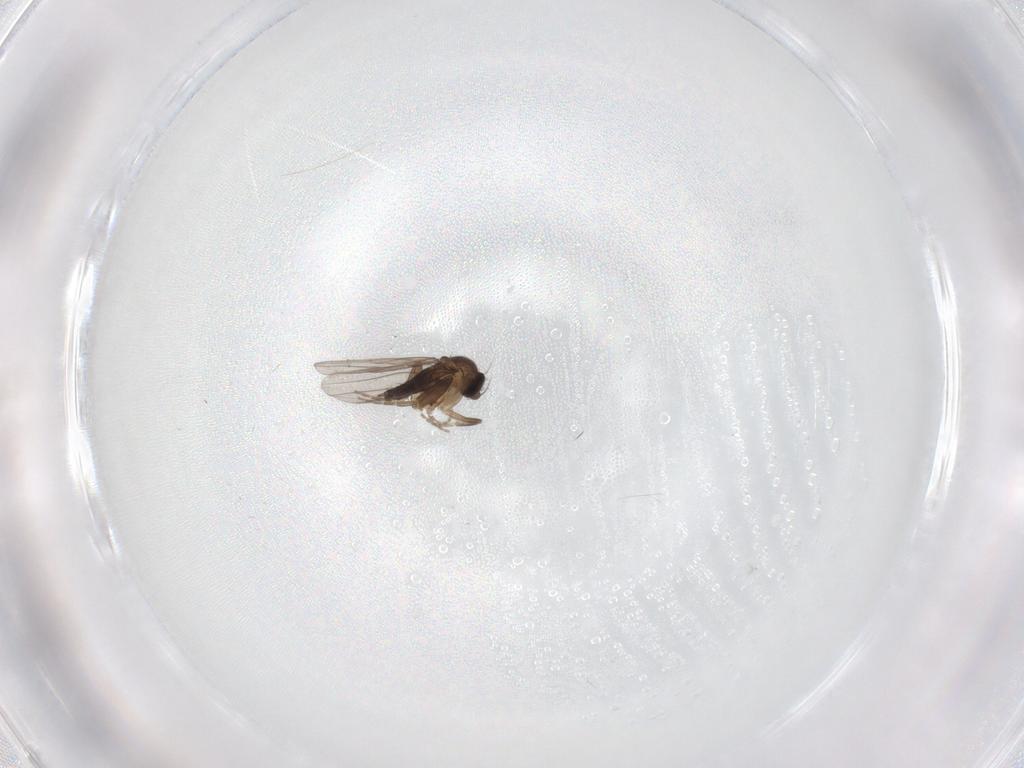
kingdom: Animalia
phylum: Arthropoda
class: Insecta
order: Diptera
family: Phoridae
